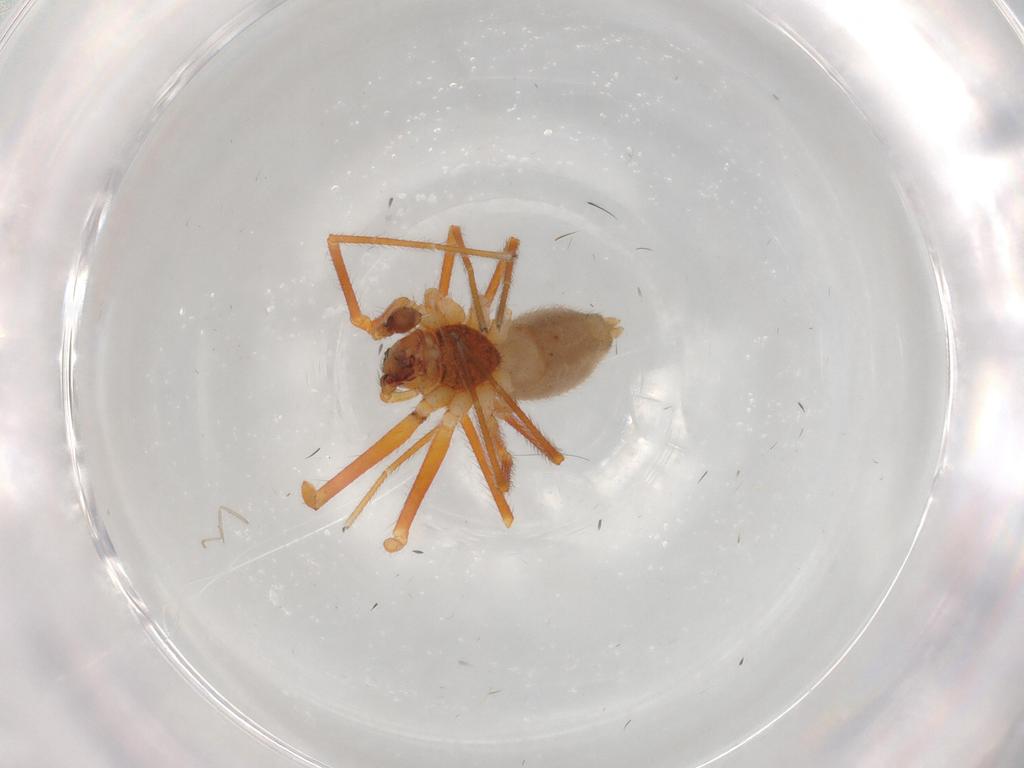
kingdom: Animalia
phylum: Arthropoda
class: Arachnida
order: Araneae
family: Linyphiidae
